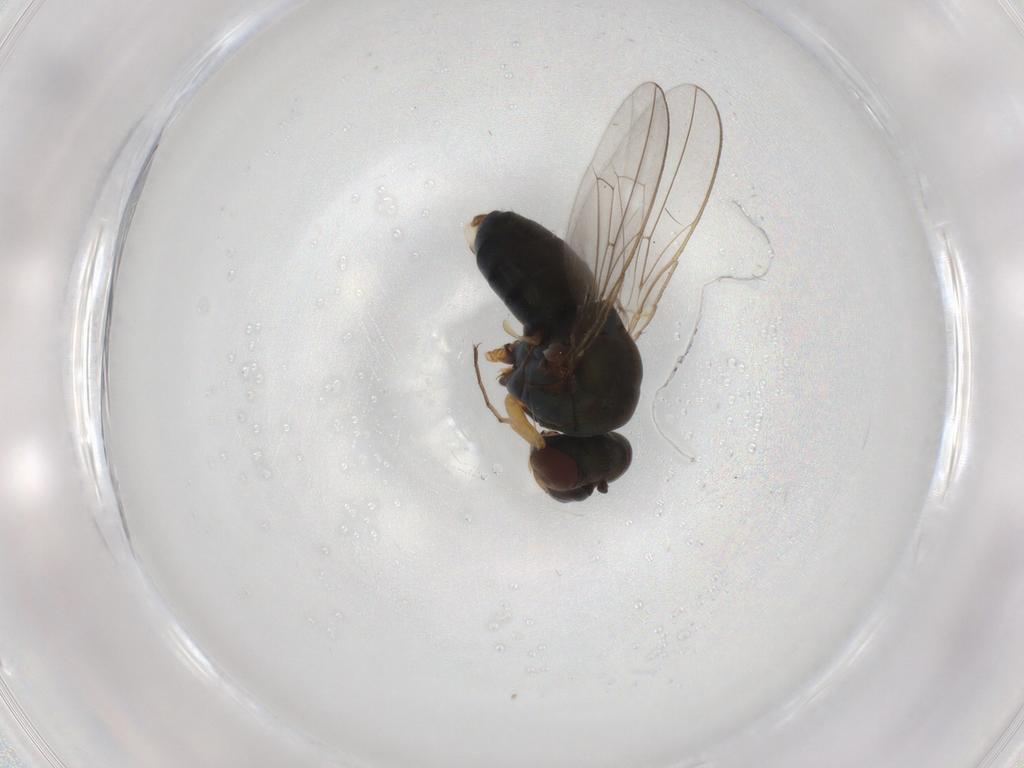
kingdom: Animalia
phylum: Arthropoda
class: Insecta
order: Diptera
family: Ephydridae
